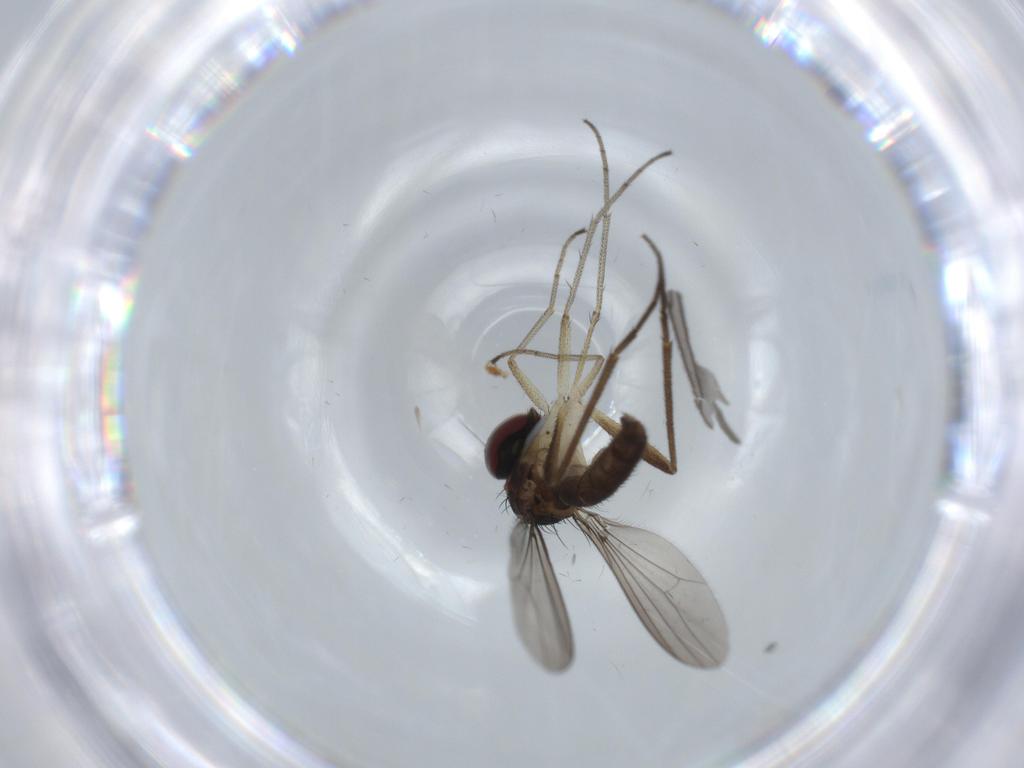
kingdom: Animalia
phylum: Arthropoda
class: Insecta
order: Diptera
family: Dolichopodidae
